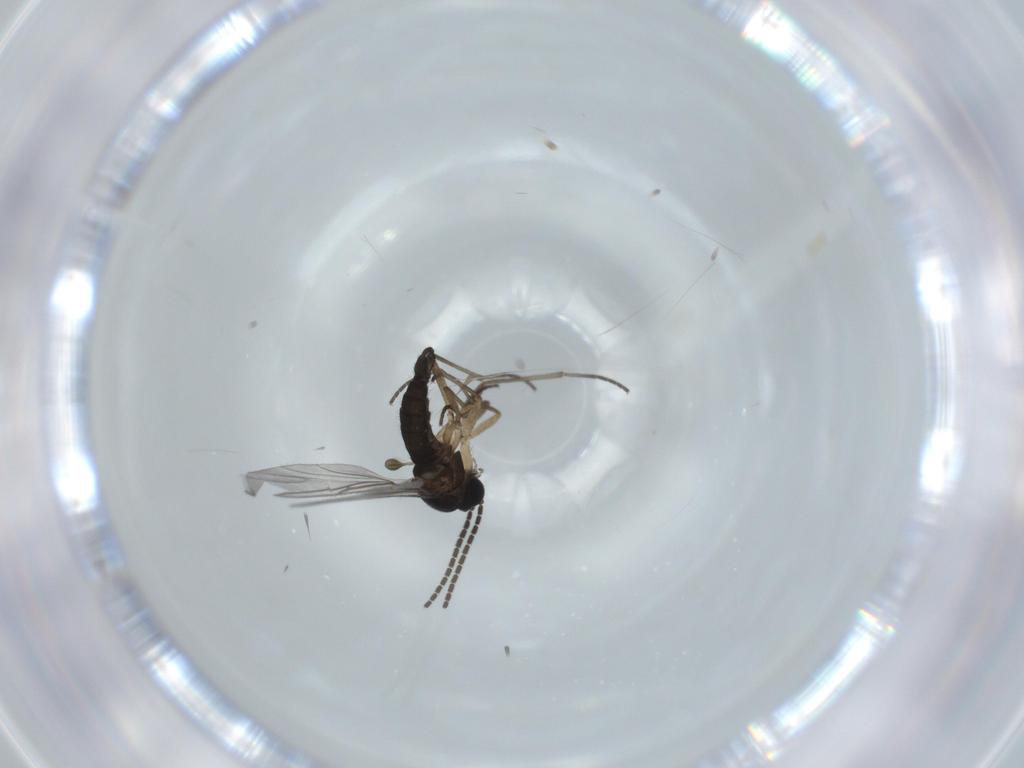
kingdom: Animalia
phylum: Arthropoda
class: Insecta
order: Diptera
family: Sciaridae
